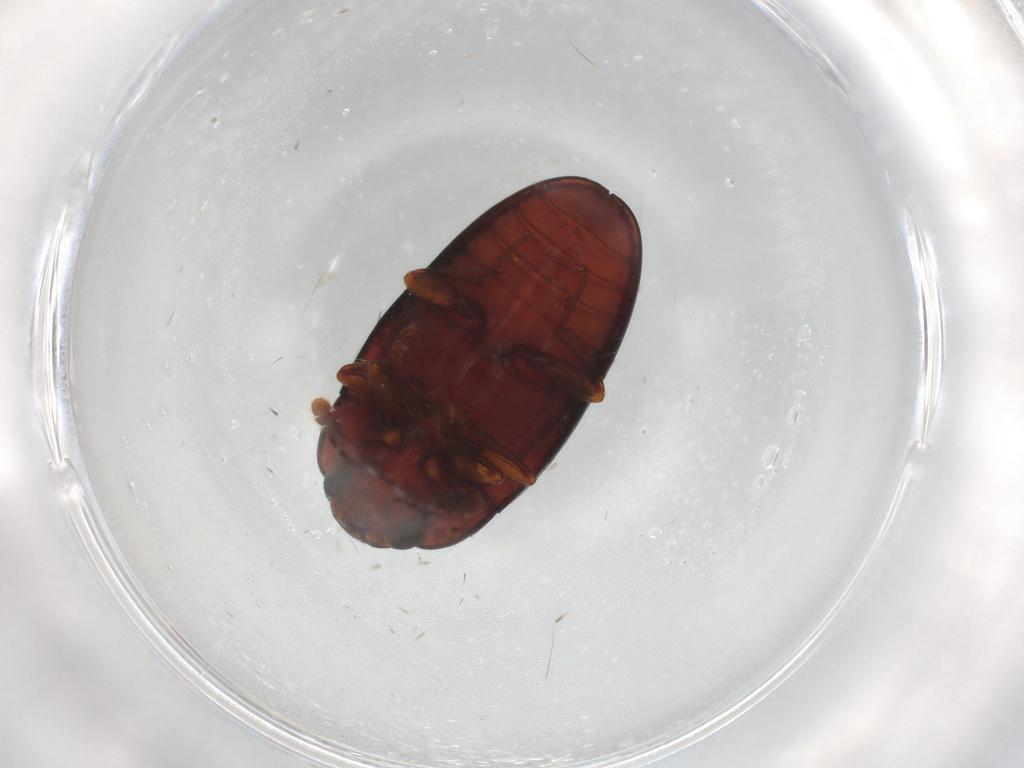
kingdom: Animalia
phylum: Arthropoda
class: Insecta
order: Coleoptera
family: Erotylidae
